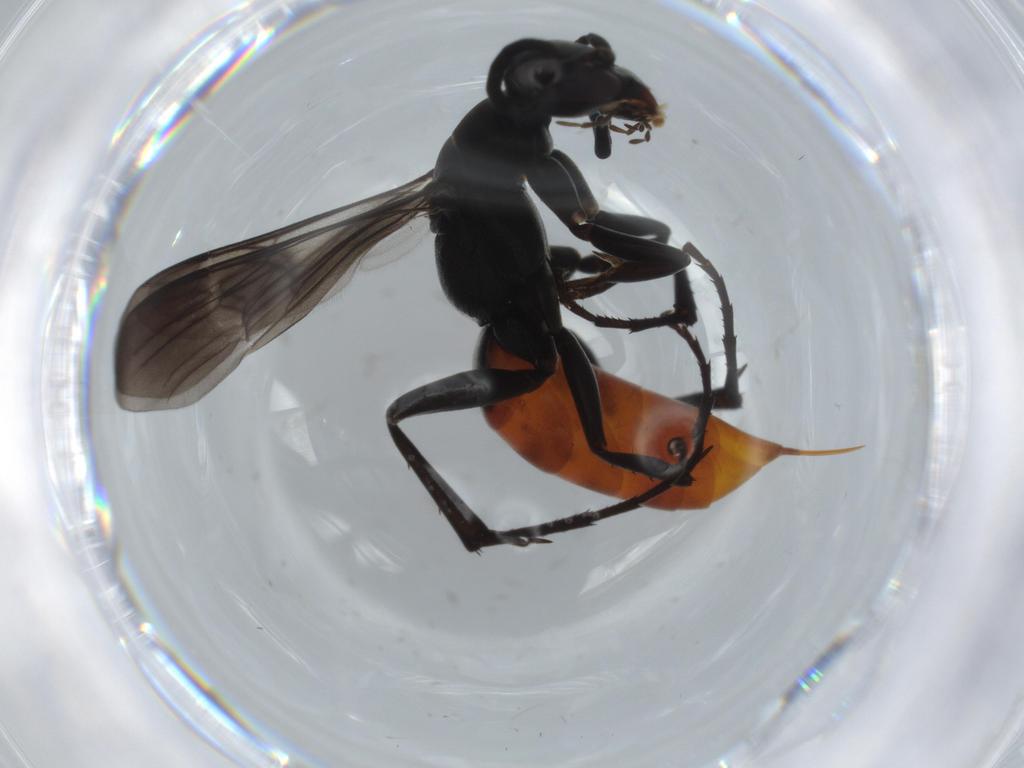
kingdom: Animalia
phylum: Arthropoda
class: Insecta
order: Hymenoptera
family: Pompilidae
